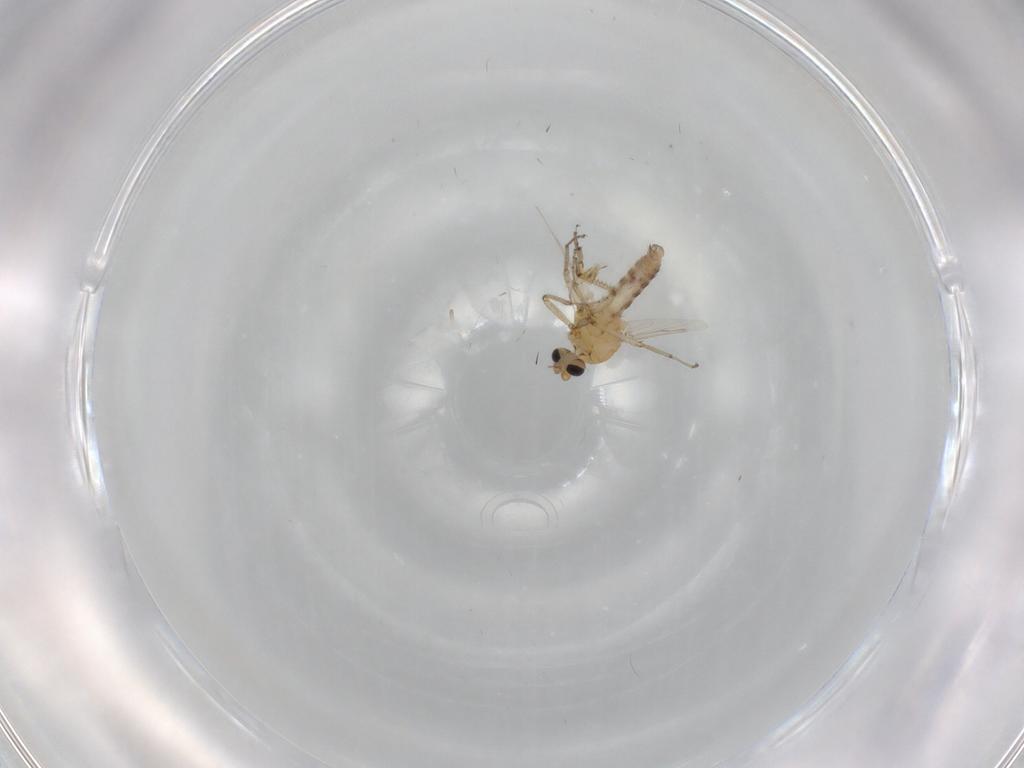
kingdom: Animalia
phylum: Arthropoda
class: Insecta
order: Diptera
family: Ceratopogonidae
